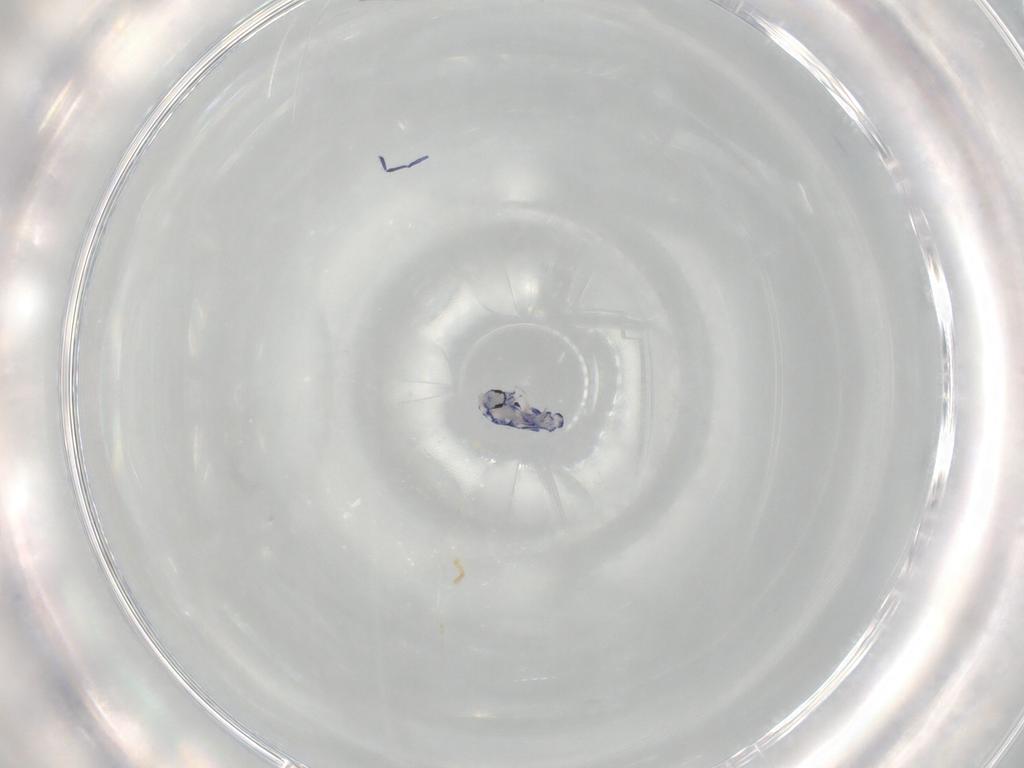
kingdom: Animalia
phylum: Arthropoda
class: Collembola
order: Entomobryomorpha
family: Entomobryidae
